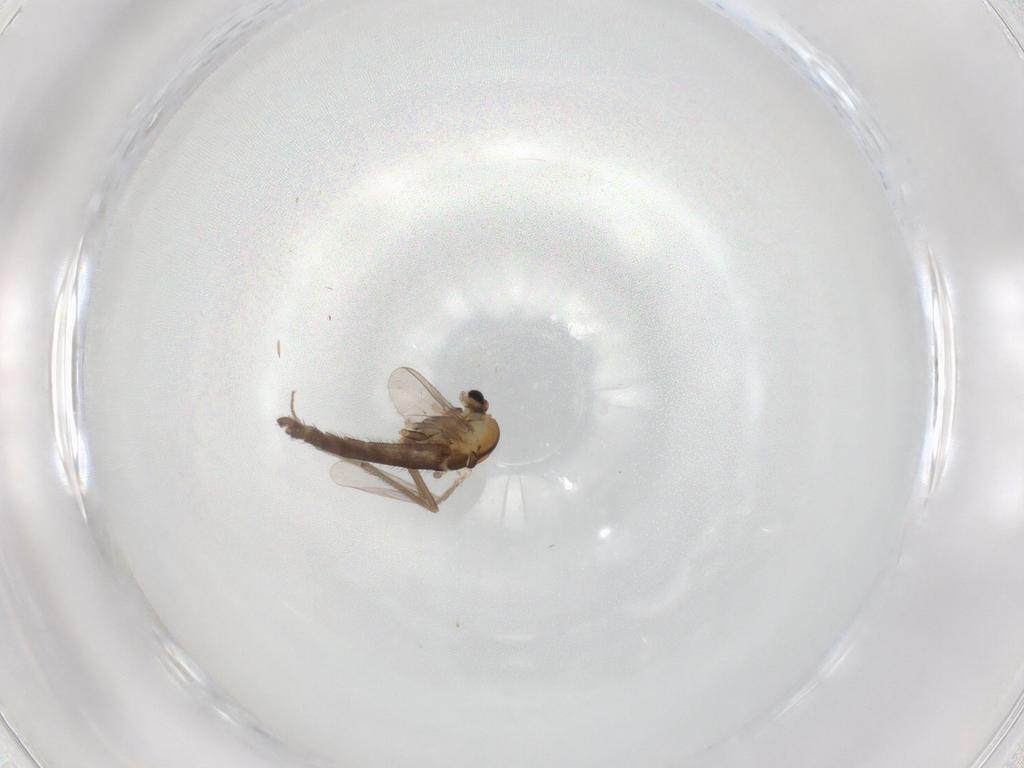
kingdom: Animalia
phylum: Arthropoda
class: Insecta
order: Diptera
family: Chironomidae
